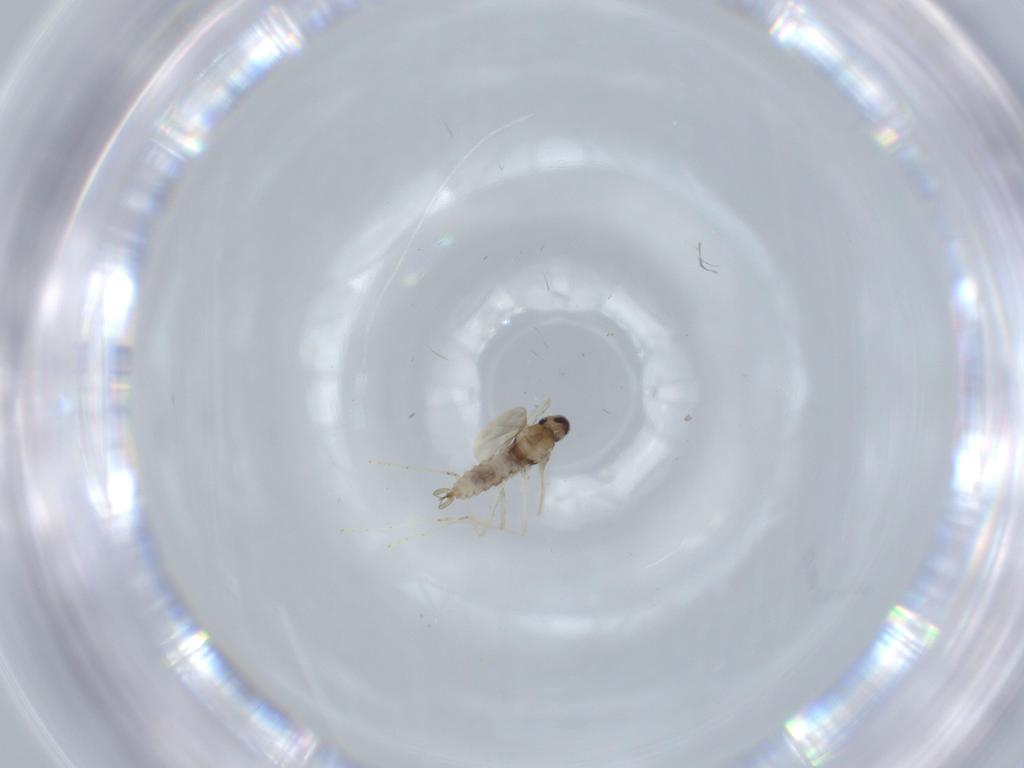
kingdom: Animalia
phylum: Arthropoda
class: Insecta
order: Diptera
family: Cecidomyiidae
